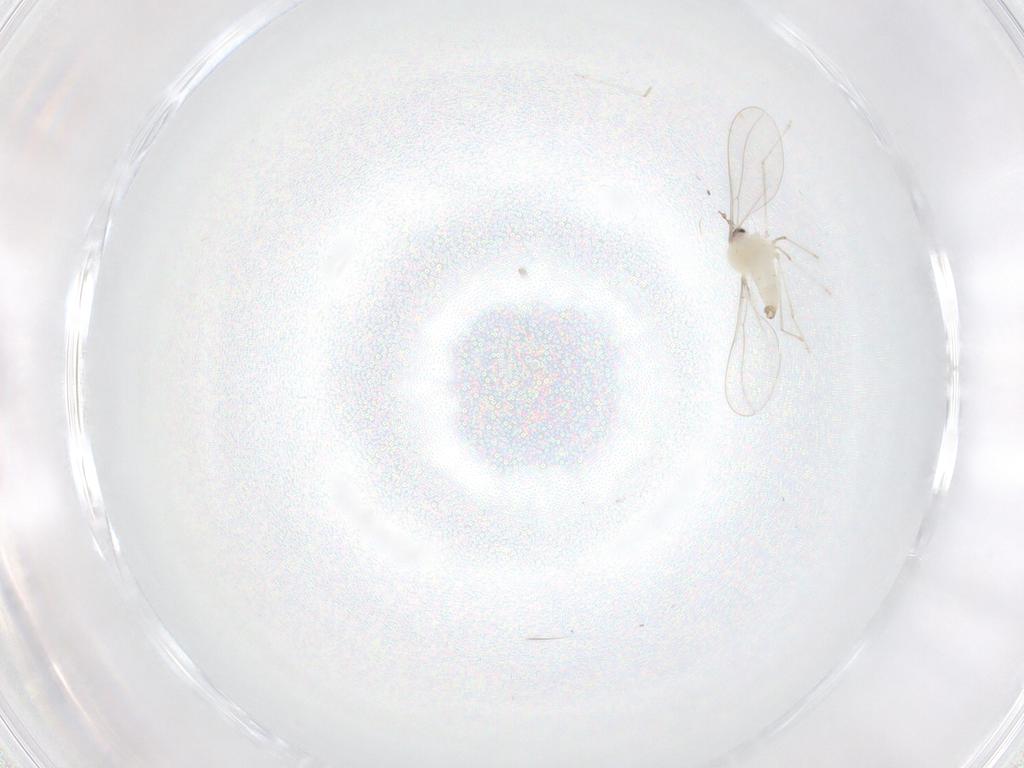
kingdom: Animalia
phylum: Arthropoda
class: Insecta
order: Diptera
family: Cecidomyiidae
